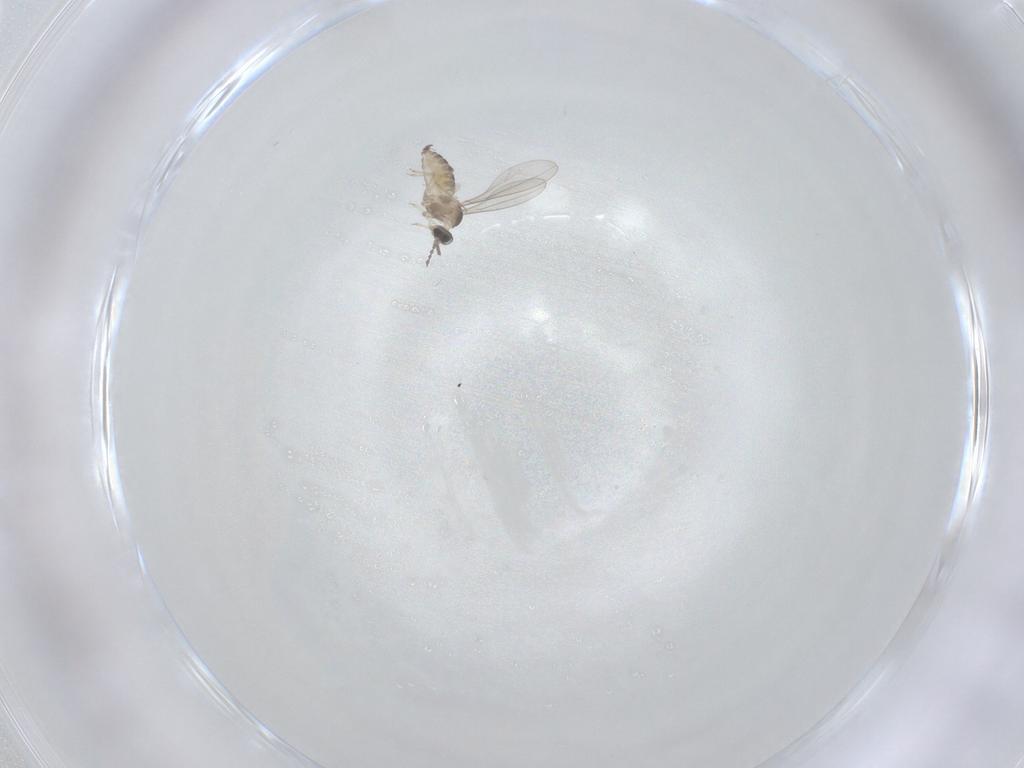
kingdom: Animalia
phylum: Arthropoda
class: Insecta
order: Diptera
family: Cecidomyiidae
